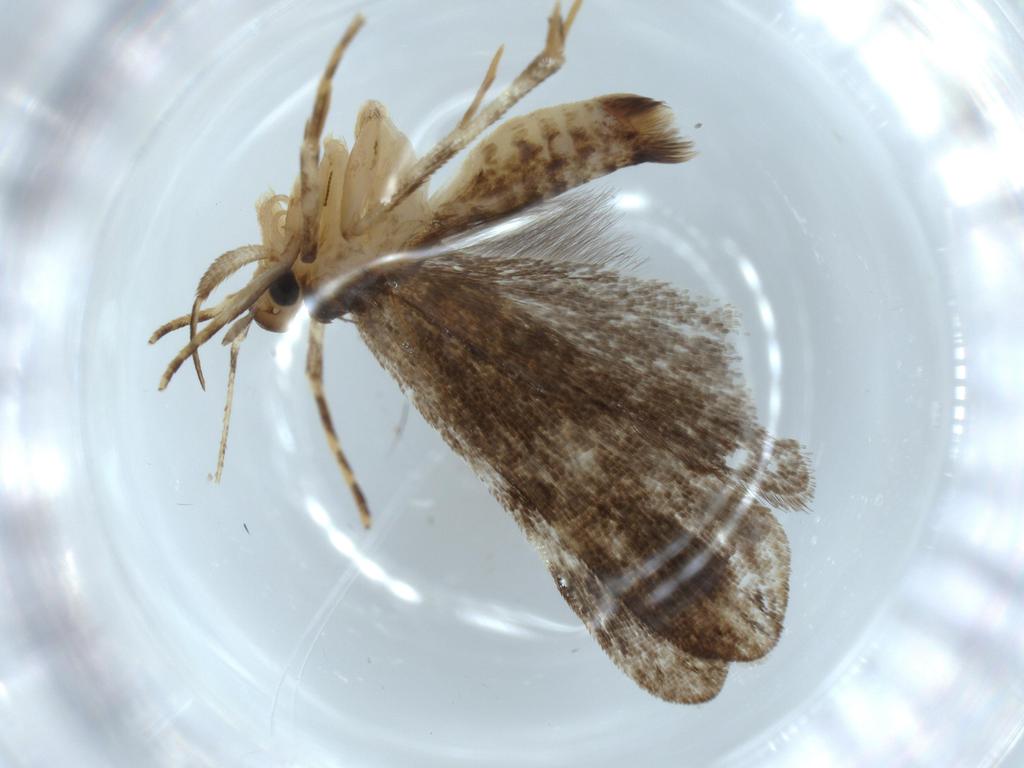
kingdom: Animalia
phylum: Arthropoda
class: Insecta
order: Lepidoptera
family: Cosmopterigidae
